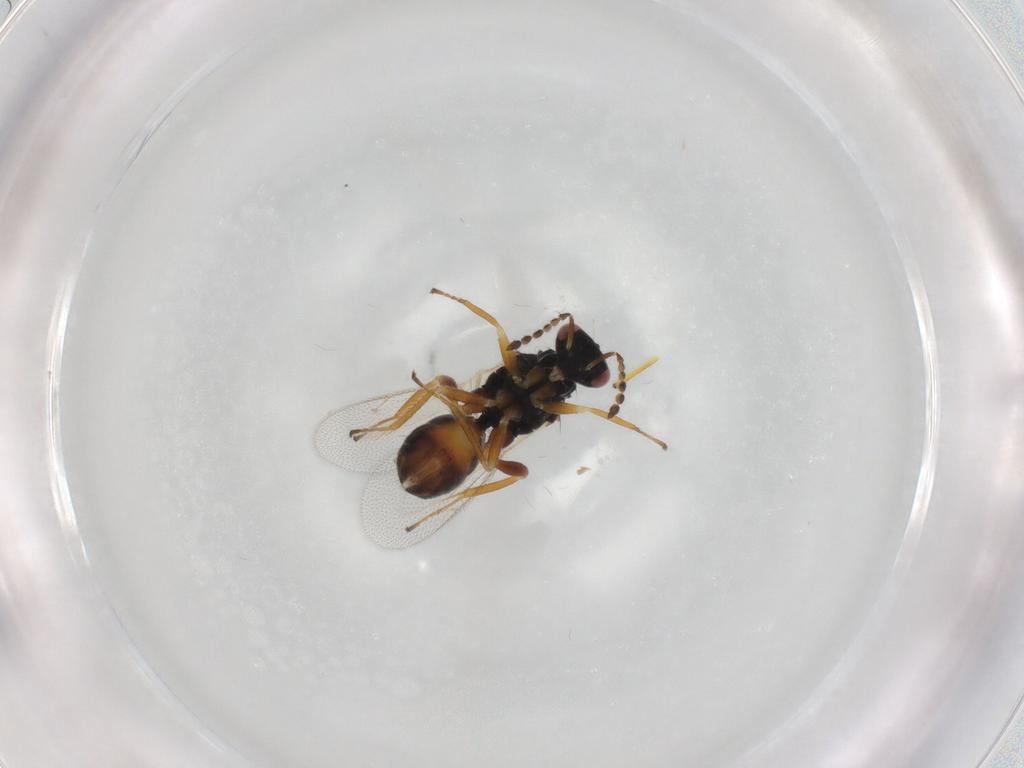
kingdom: Animalia
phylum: Arthropoda
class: Insecta
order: Hymenoptera
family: Eulophidae
